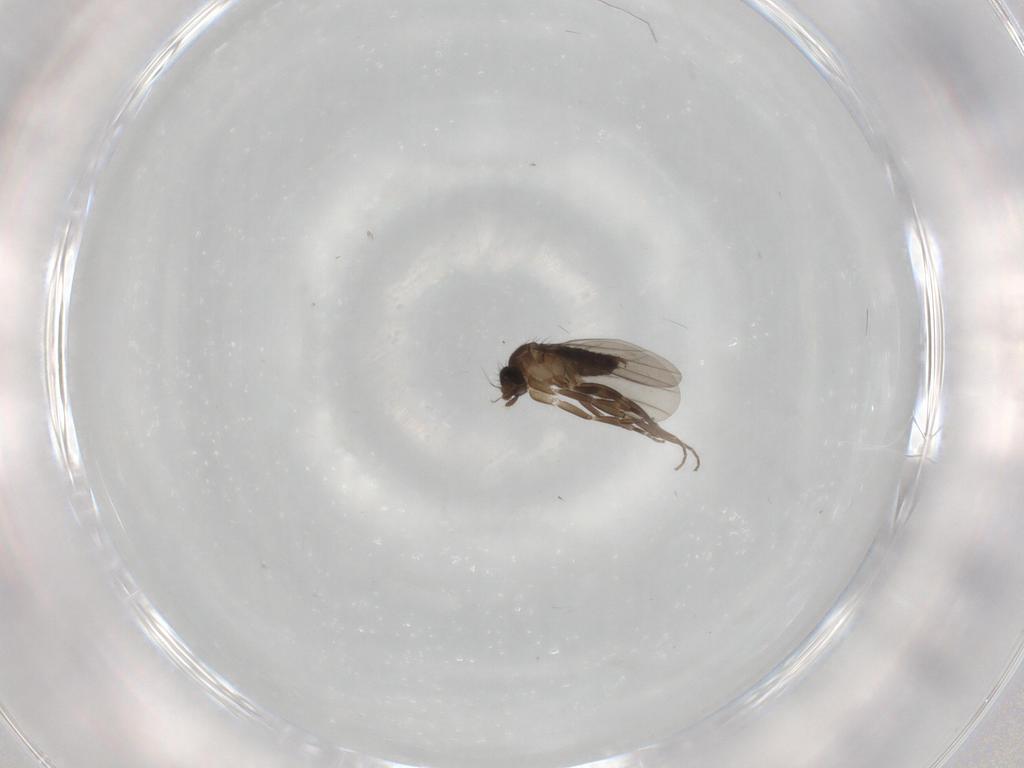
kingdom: Animalia
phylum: Arthropoda
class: Insecta
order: Diptera
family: Phoridae
